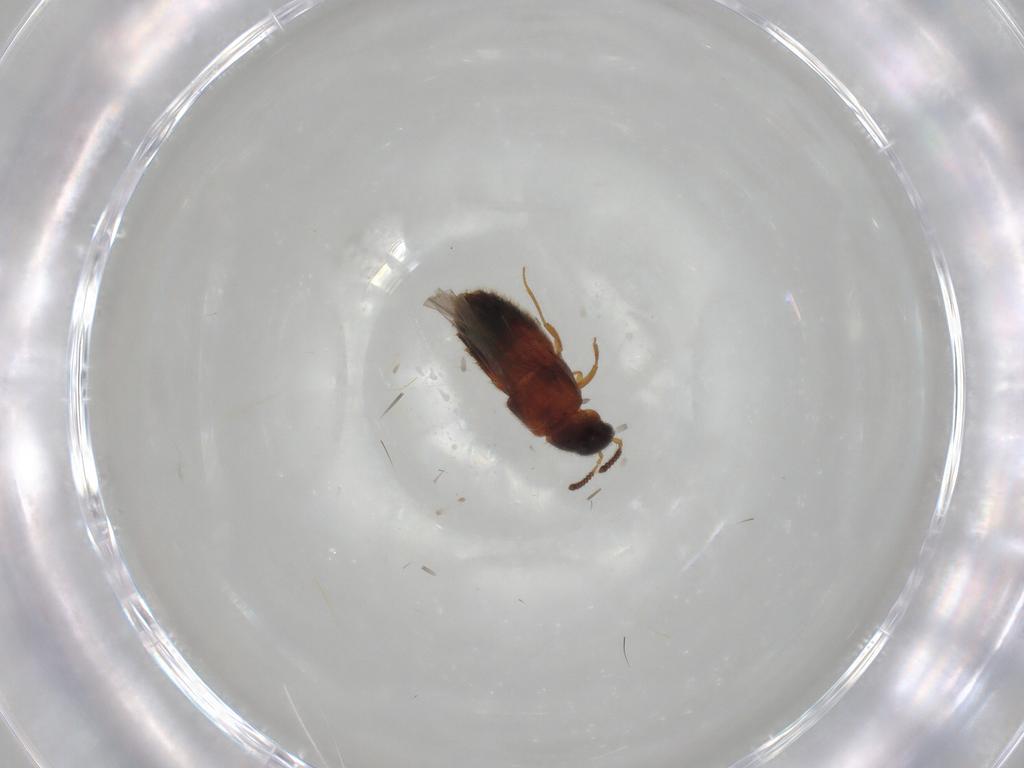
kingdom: Animalia
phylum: Arthropoda
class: Insecta
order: Coleoptera
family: Staphylinidae
